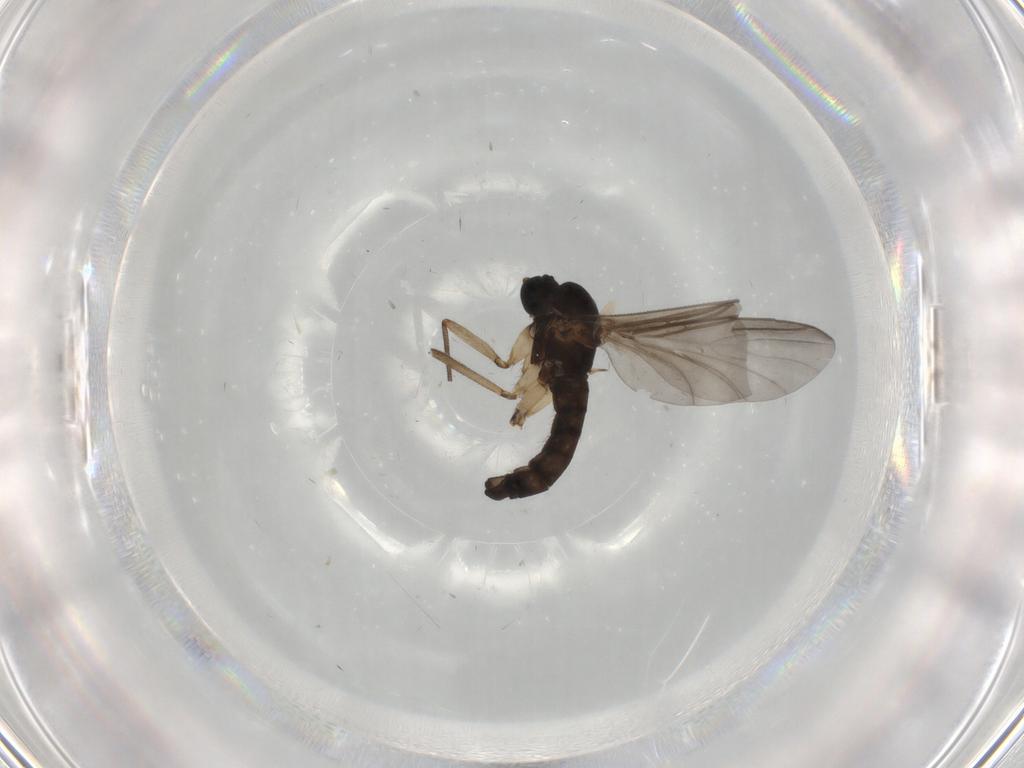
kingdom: Animalia
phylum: Arthropoda
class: Insecta
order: Diptera
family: Sciaridae
